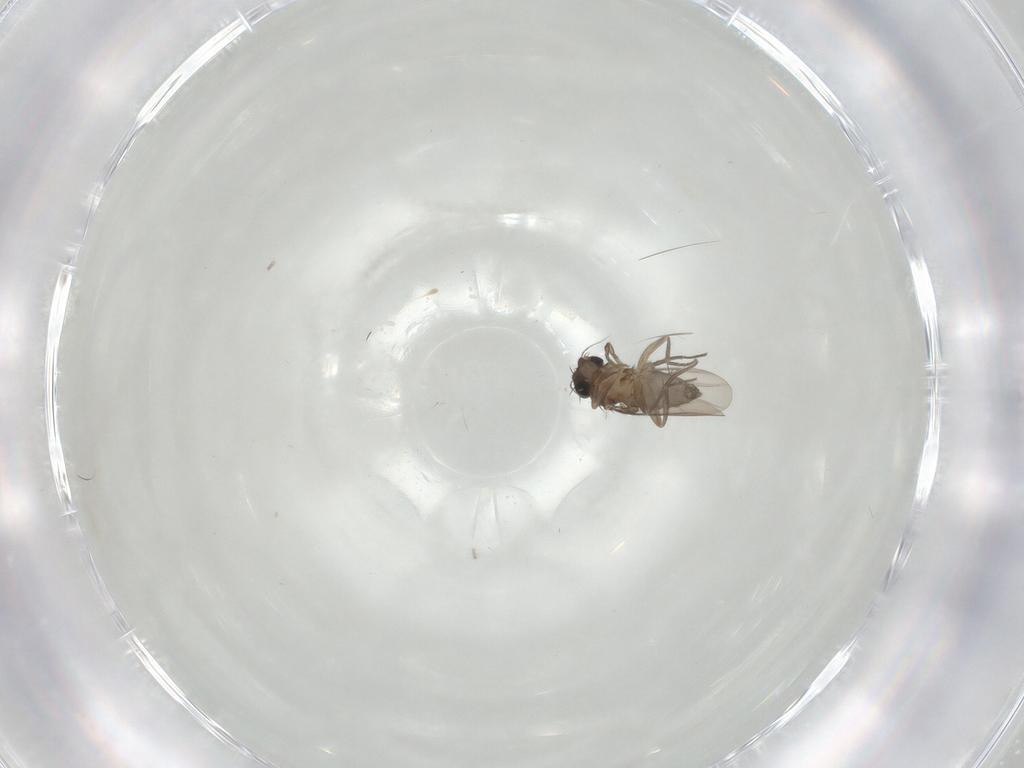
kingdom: Animalia
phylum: Arthropoda
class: Insecta
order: Diptera
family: Phoridae
